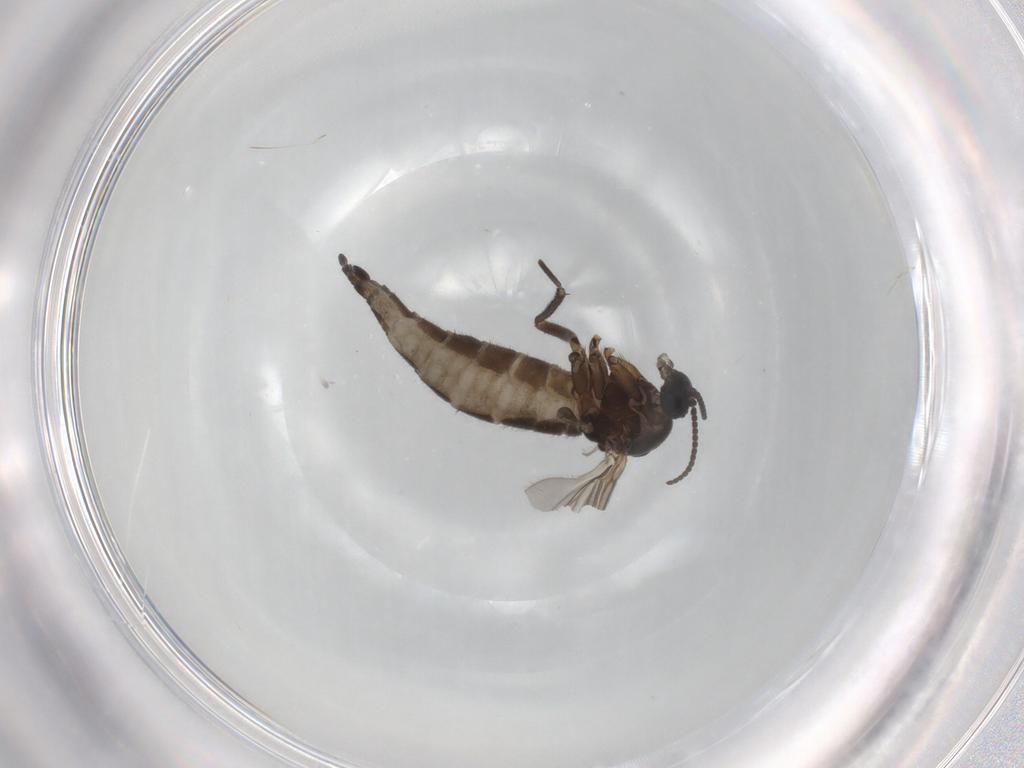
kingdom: Animalia
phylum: Arthropoda
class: Insecta
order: Diptera
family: Sciaridae
